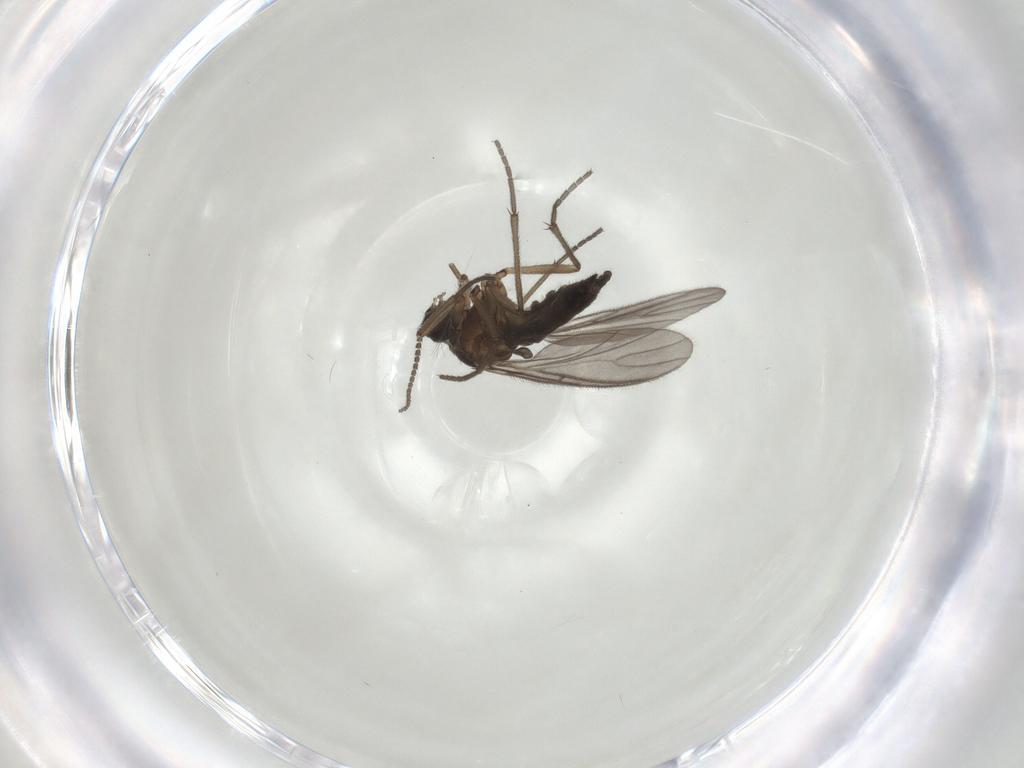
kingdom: Animalia
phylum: Arthropoda
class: Insecta
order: Diptera
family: Sciaridae
